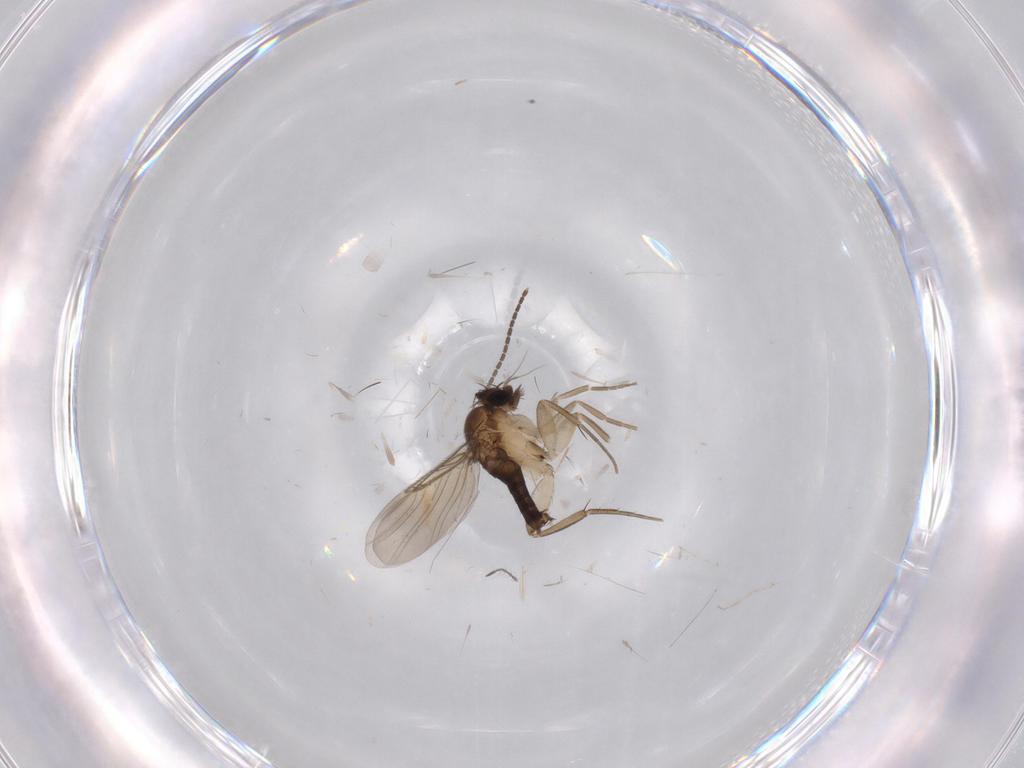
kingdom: Animalia
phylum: Arthropoda
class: Insecta
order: Diptera
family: Phoridae
